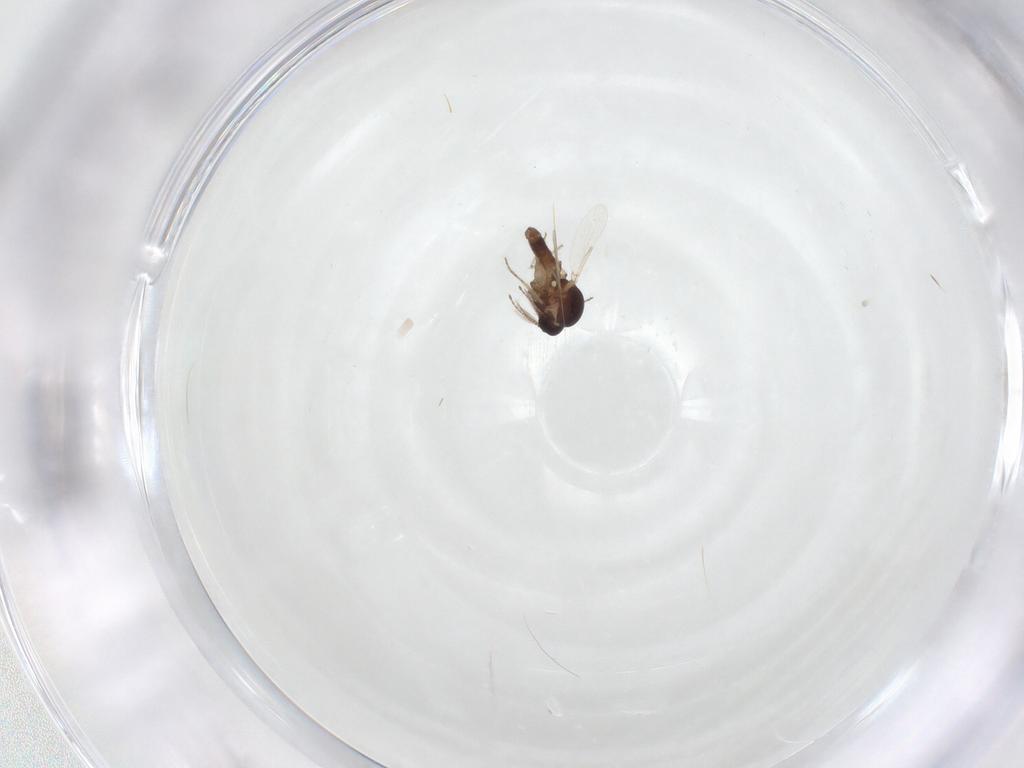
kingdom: Animalia
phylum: Arthropoda
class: Insecta
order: Diptera
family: Ceratopogonidae
